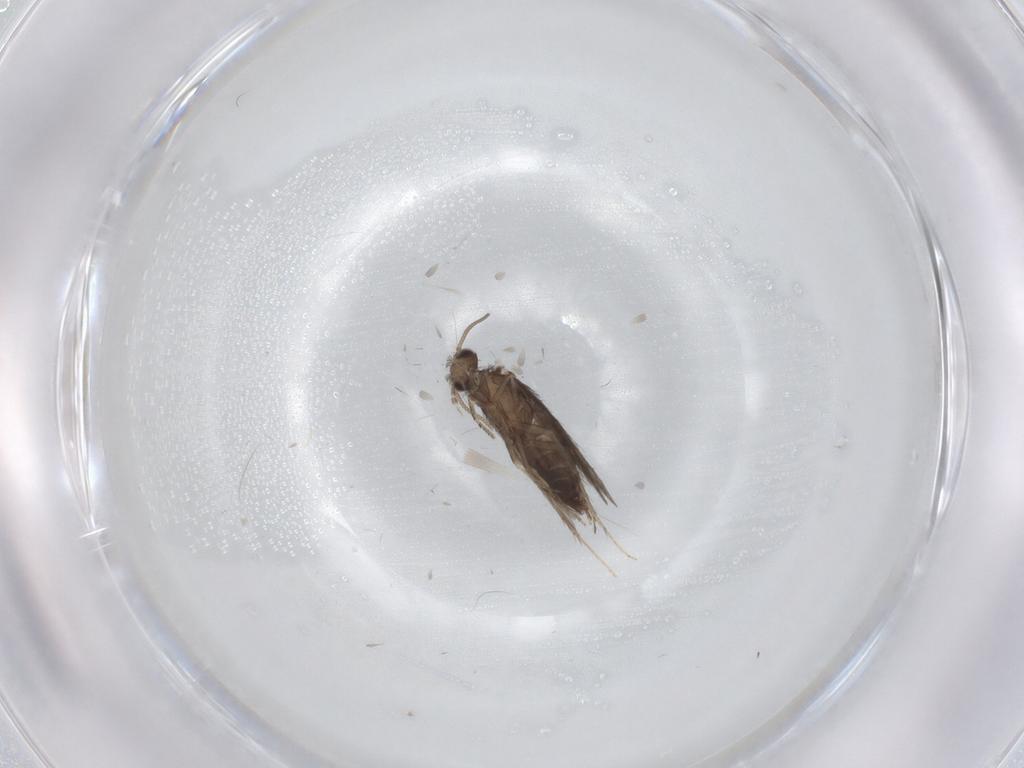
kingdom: Animalia
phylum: Arthropoda
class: Insecta
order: Trichoptera
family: Hydroptilidae
